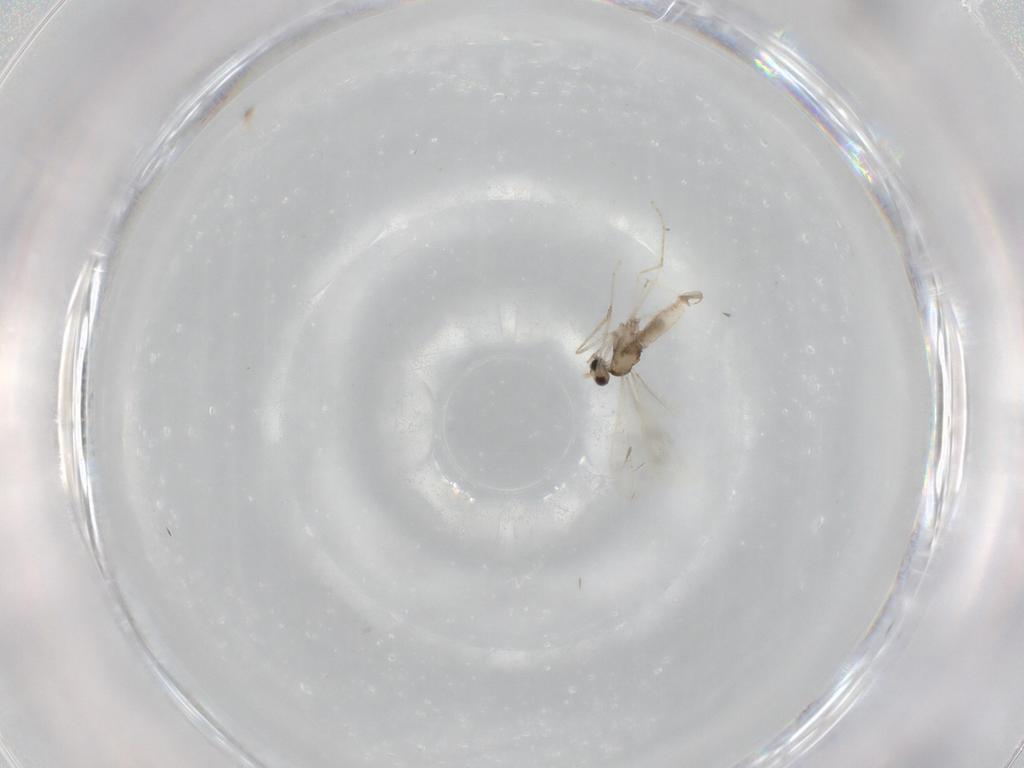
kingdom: Animalia
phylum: Arthropoda
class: Insecta
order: Diptera
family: Cecidomyiidae
